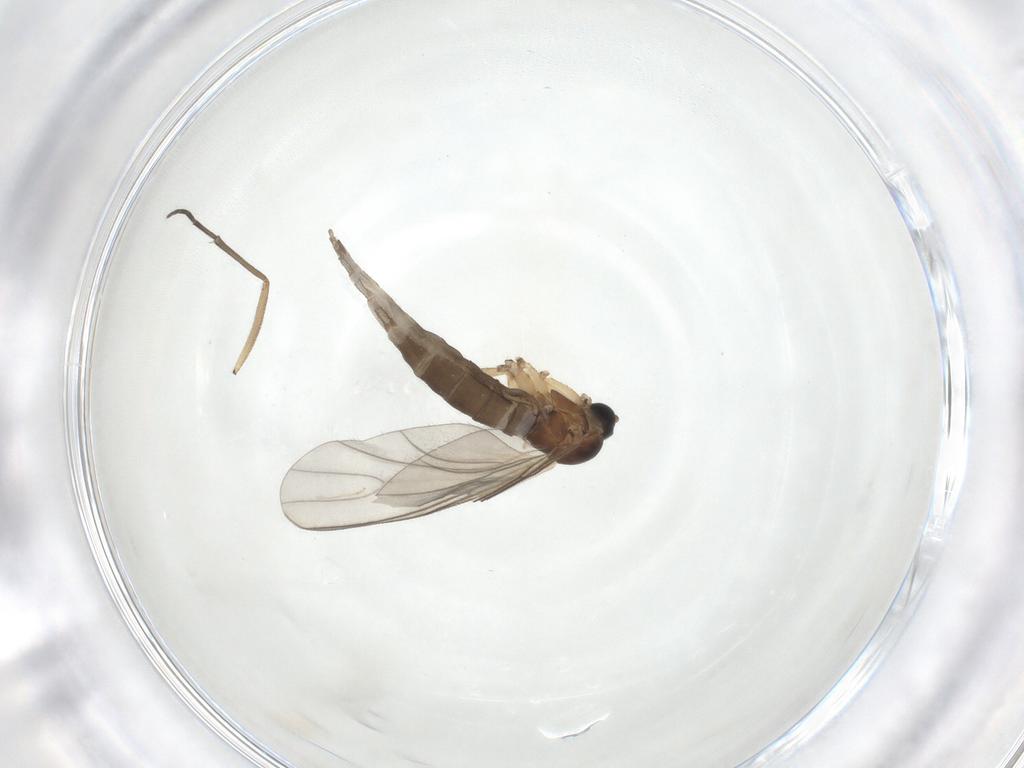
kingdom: Animalia
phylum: Arthropoda
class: Insecta
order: Diptera
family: Sciaridae
